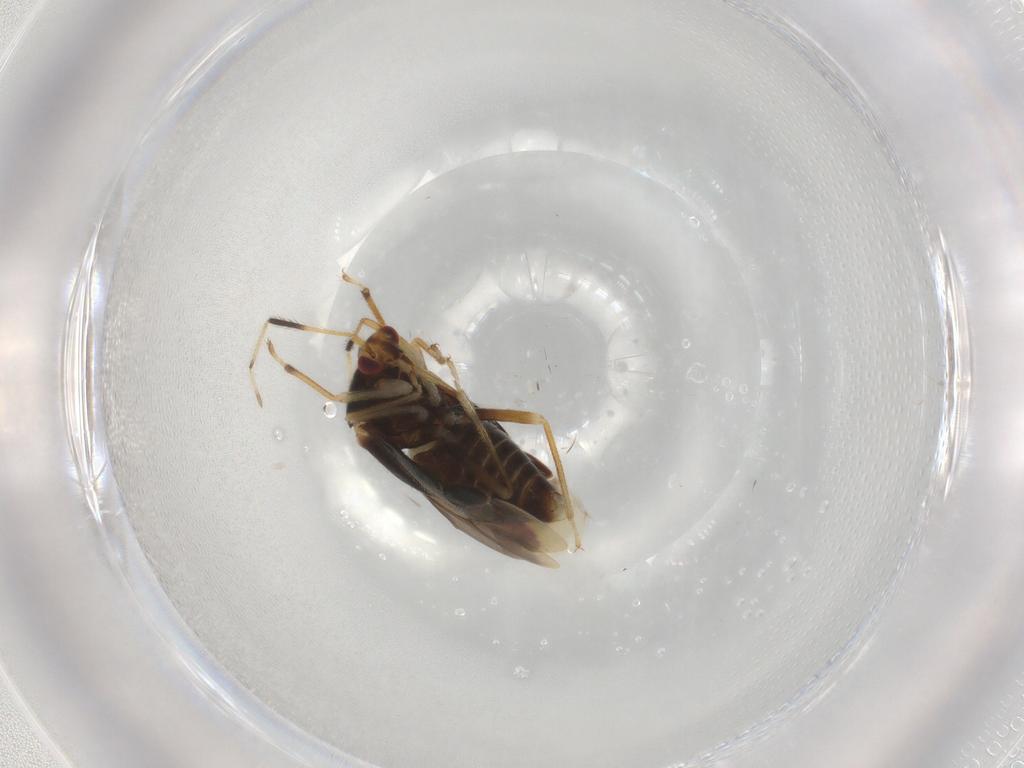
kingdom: Animalia
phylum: Arthropoda
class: Insecta
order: Hemiptera
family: Miridae
